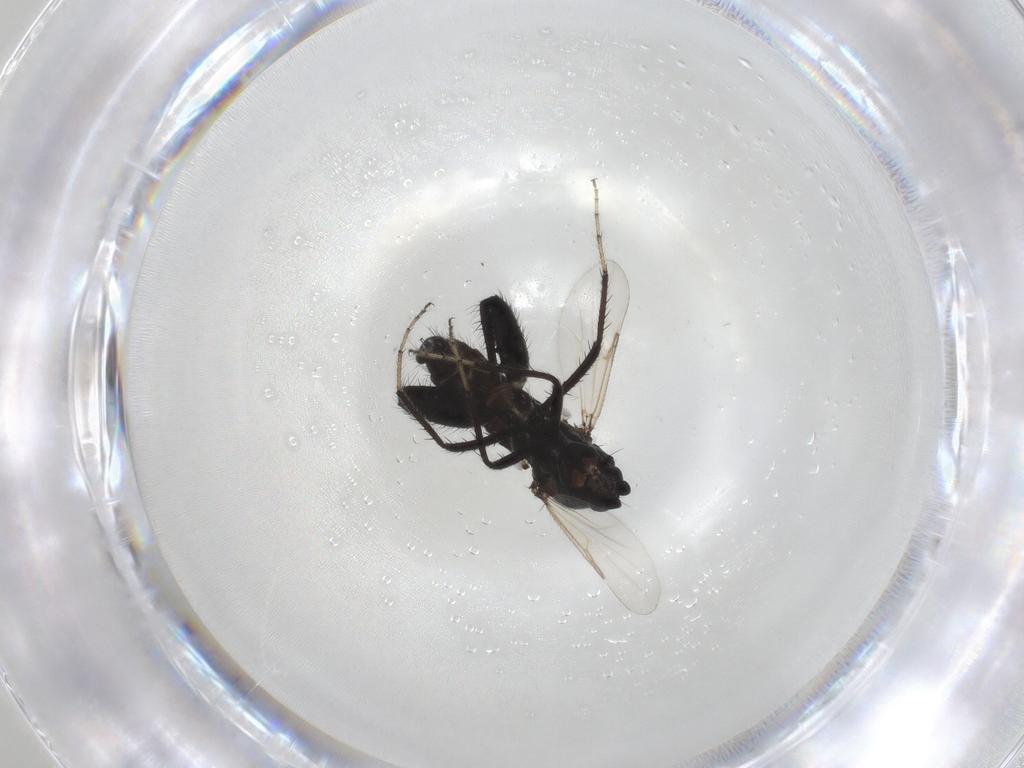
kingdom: Animalia
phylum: Arthropoda
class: Insecta
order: Diptera
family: Ceratopogonidae
